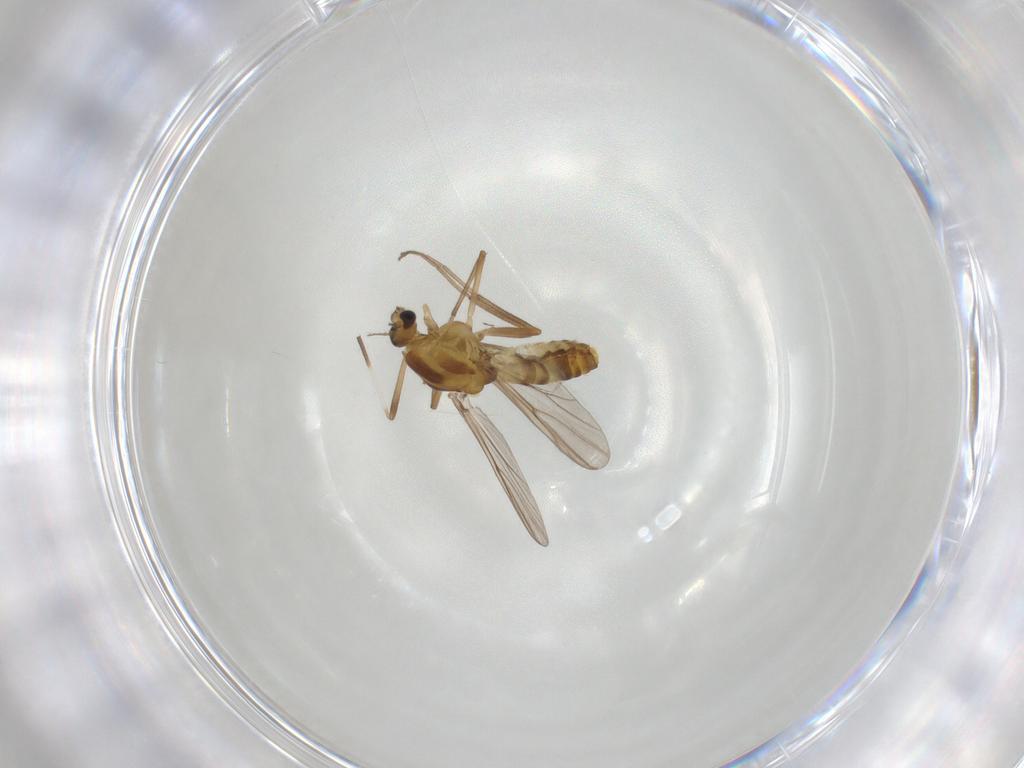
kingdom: Animalia
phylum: Arthropoda
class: Insecta
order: Diptera
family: Chironomidae
